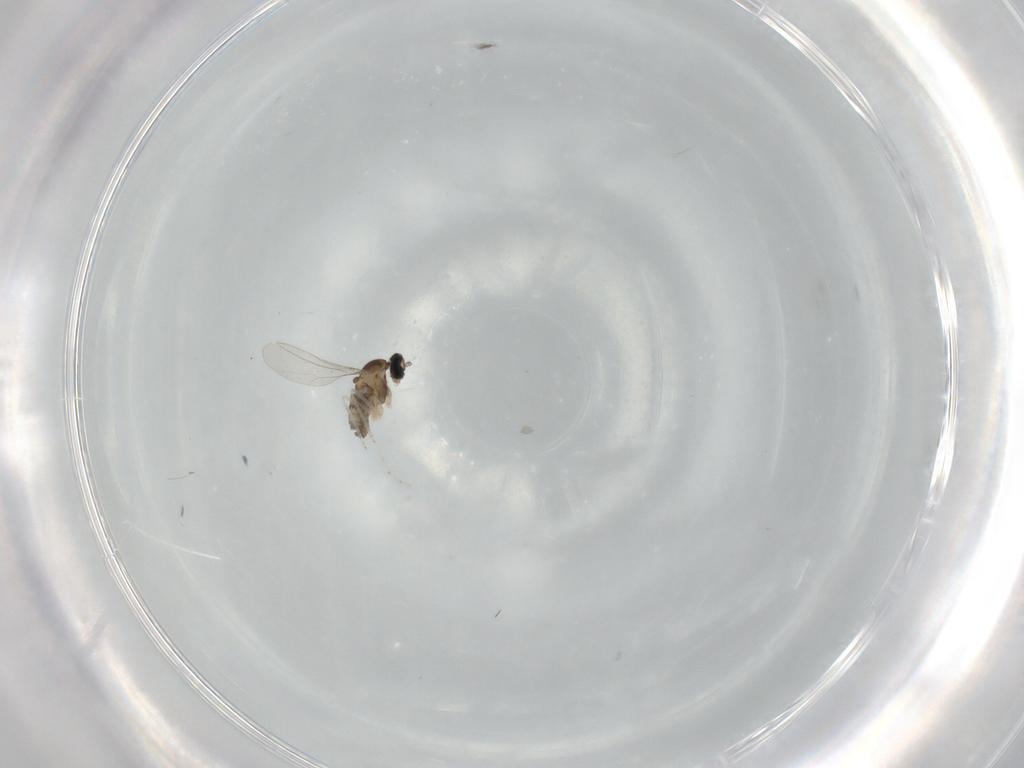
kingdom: Animalia
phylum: Arthropoda
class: Insecta
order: Diptera
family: Cecidomyiidae
